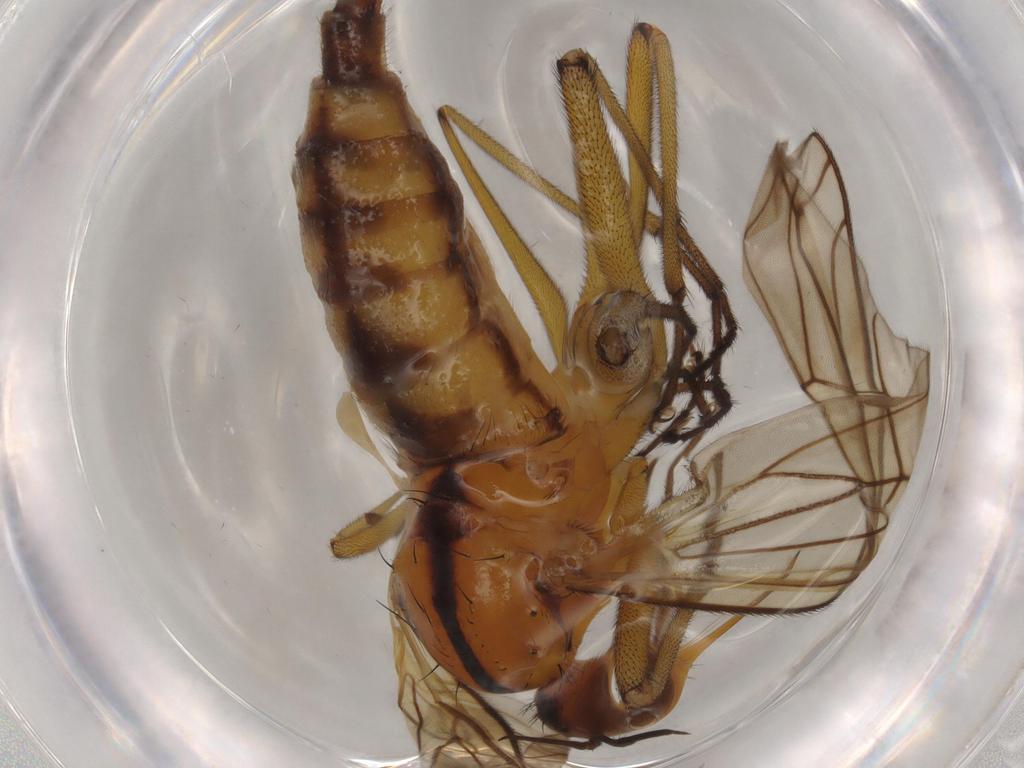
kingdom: Animalia
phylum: Arthropoda
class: Insecta
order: Diptera
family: Empididae
